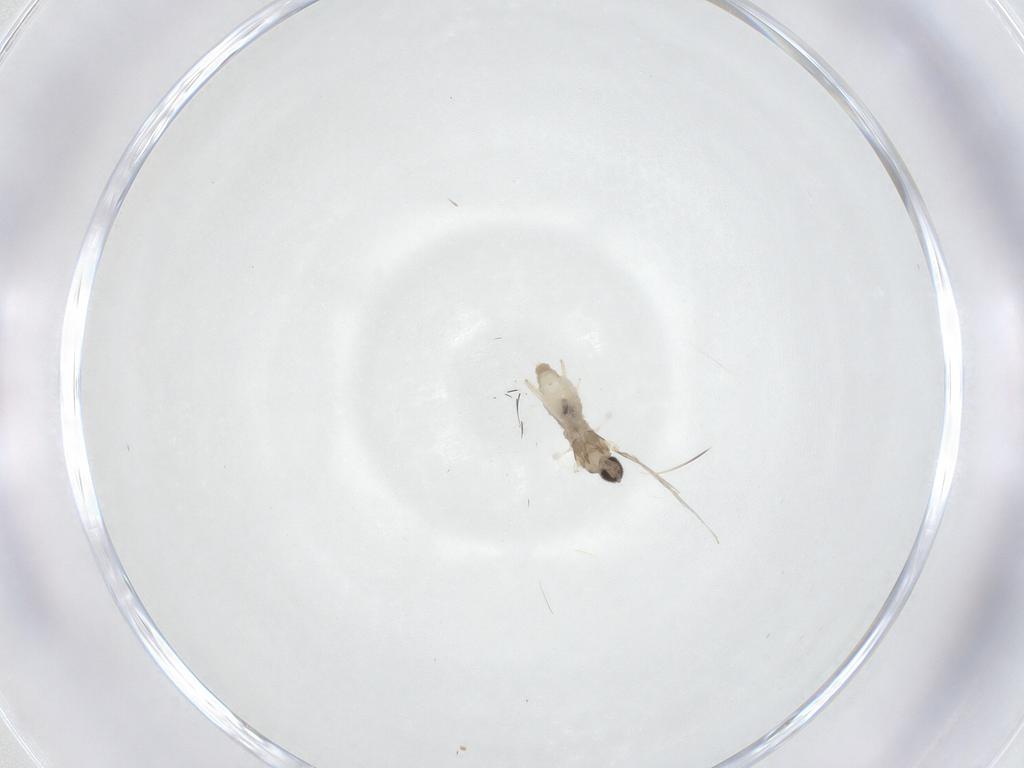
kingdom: Animalia
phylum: Arthropoda
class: Insecta
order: Diptera
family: Cecidomyiidae
